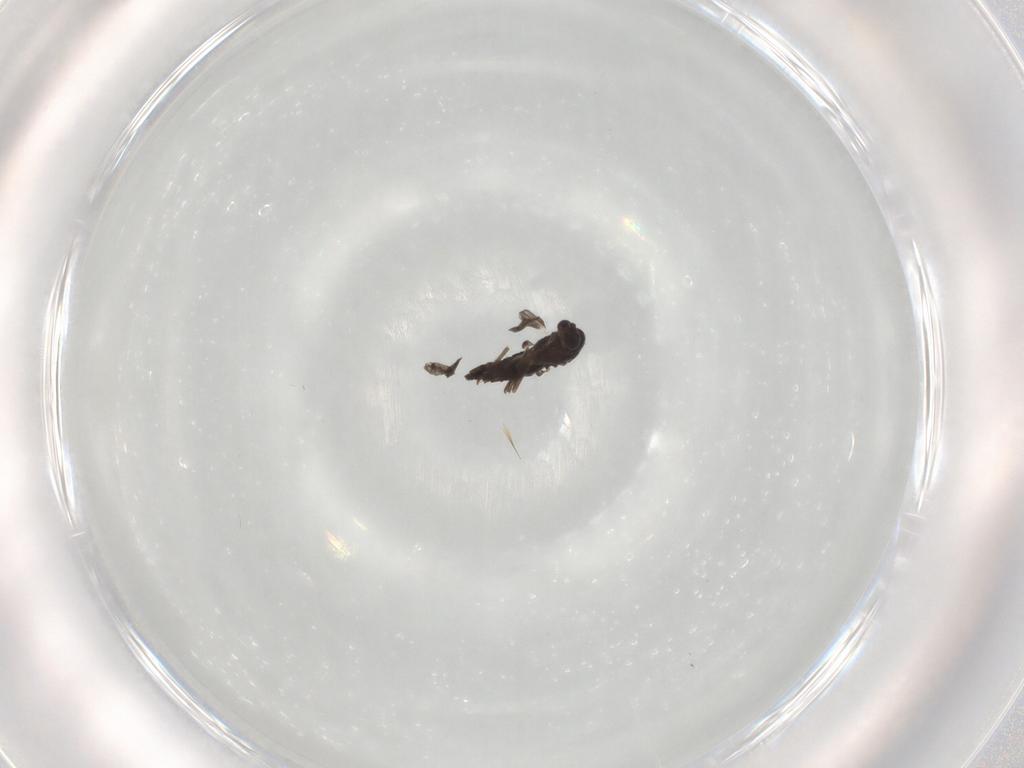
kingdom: Animalia
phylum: Arthropoda
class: Insecta
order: Diptera
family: Chironomidae
